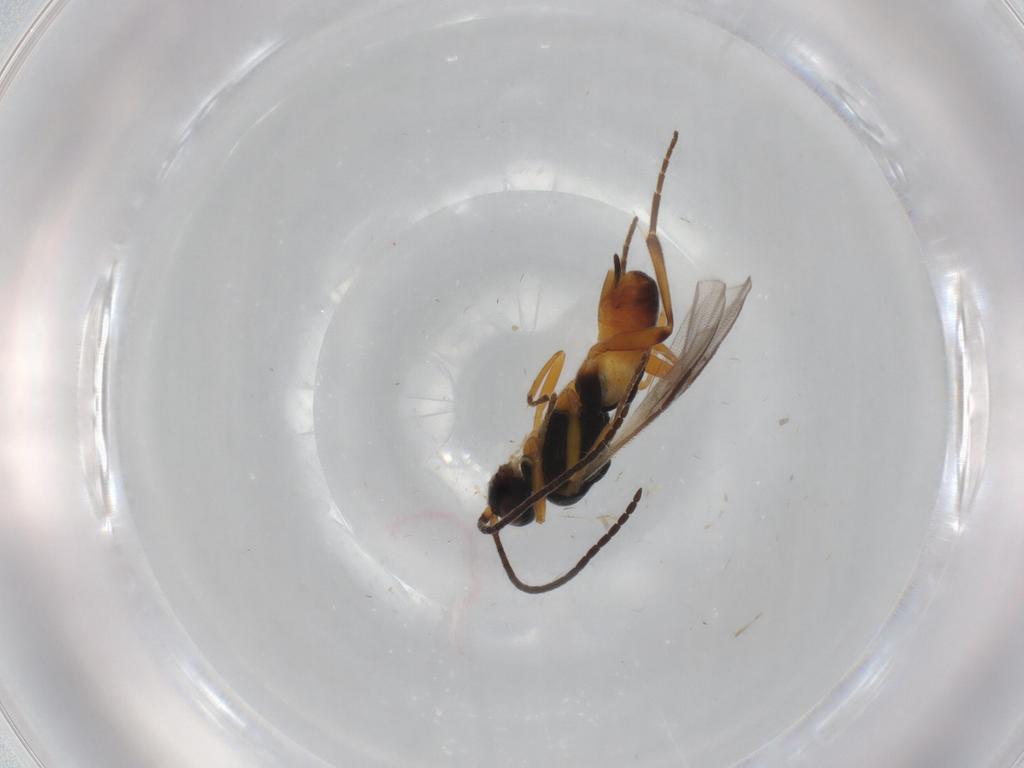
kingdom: Animalia
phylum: Arthropoda
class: Insecta
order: Hymenoptera
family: Braconidae
